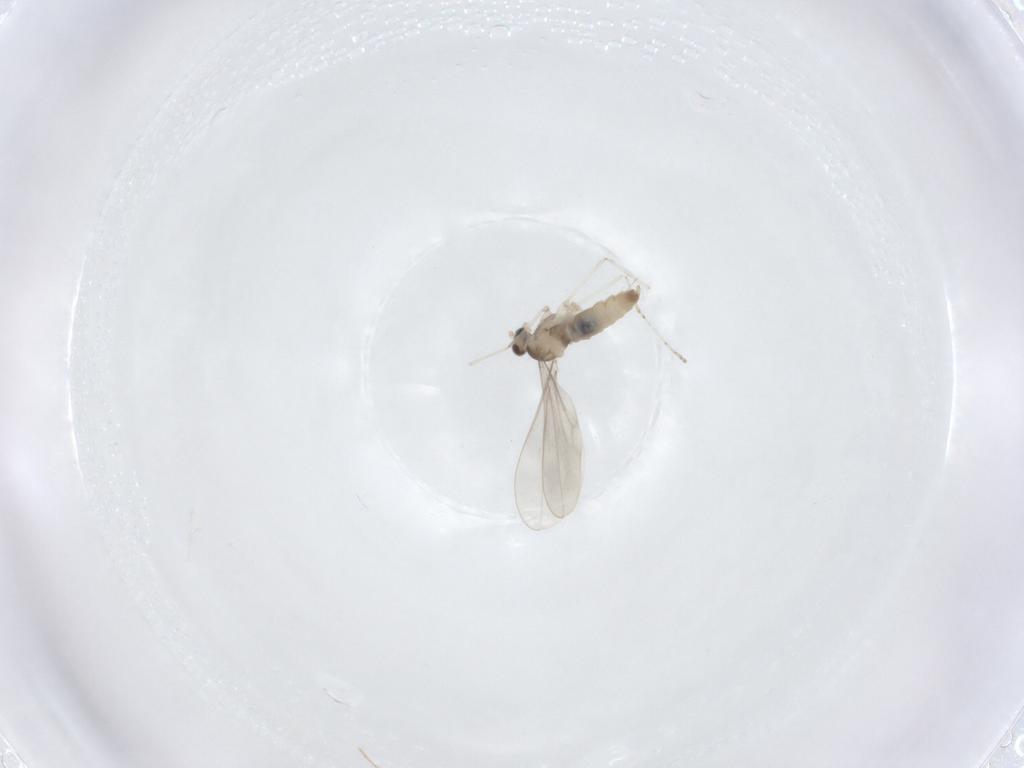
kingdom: Animalia
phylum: Arthropoda
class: Insecta
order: Diptera
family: Cecidomyiidae
